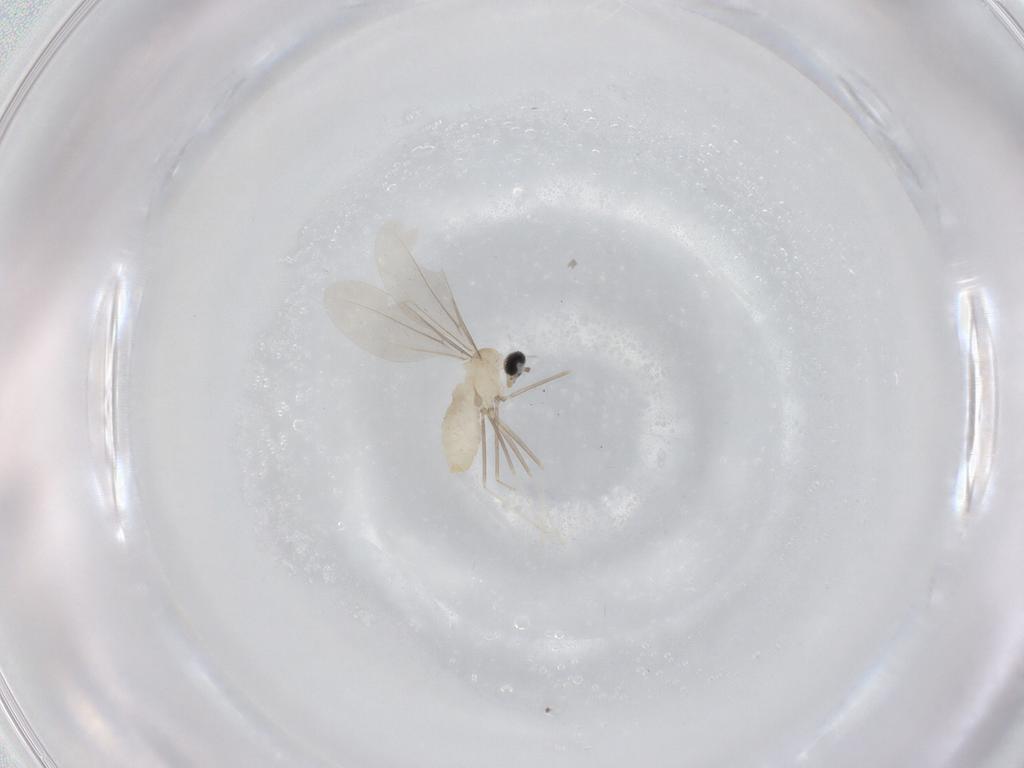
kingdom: Animalia
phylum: Arthropoda
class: Insecta
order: Diptera
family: Cecidomyiidae
